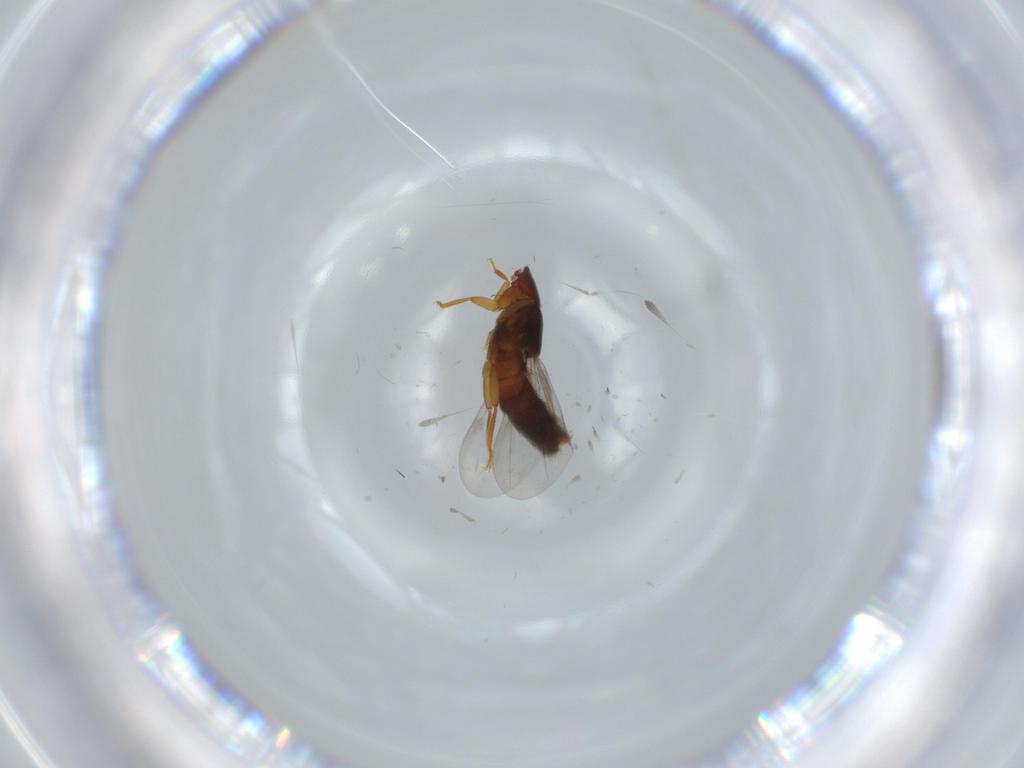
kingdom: Animalia
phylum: Arthropoda
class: Insecta
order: Coleoptera
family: Staphylinidae
